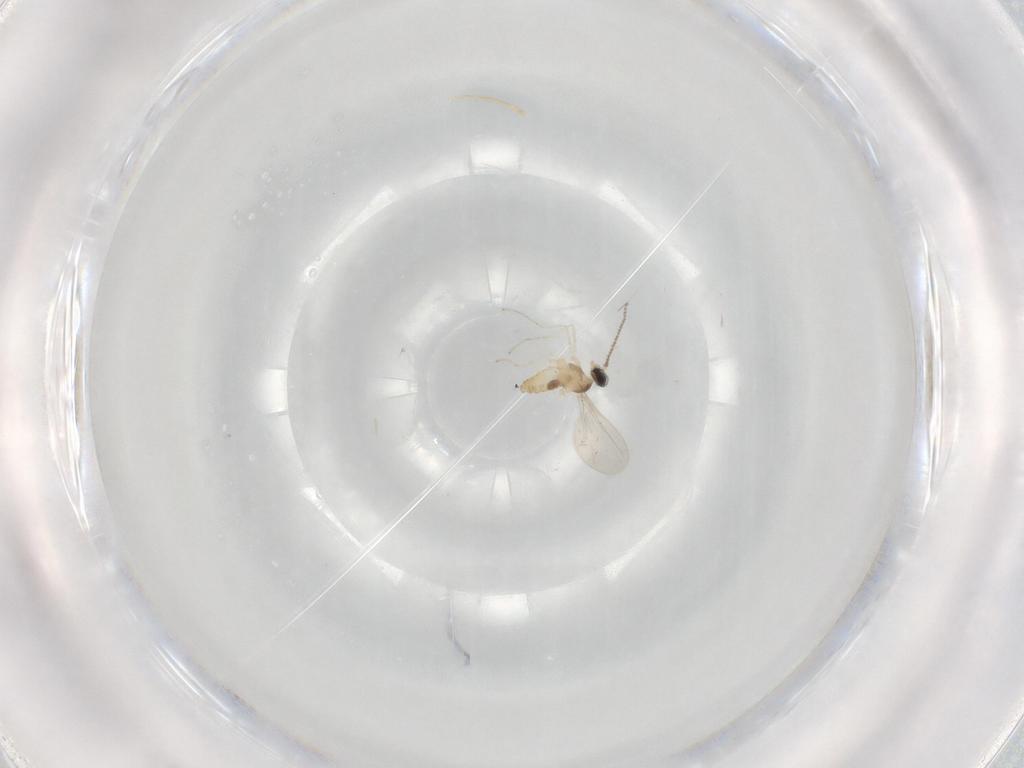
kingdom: Animalia
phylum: Arthropoda
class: Insecta
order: Diptera
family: Cecidomyiidae
